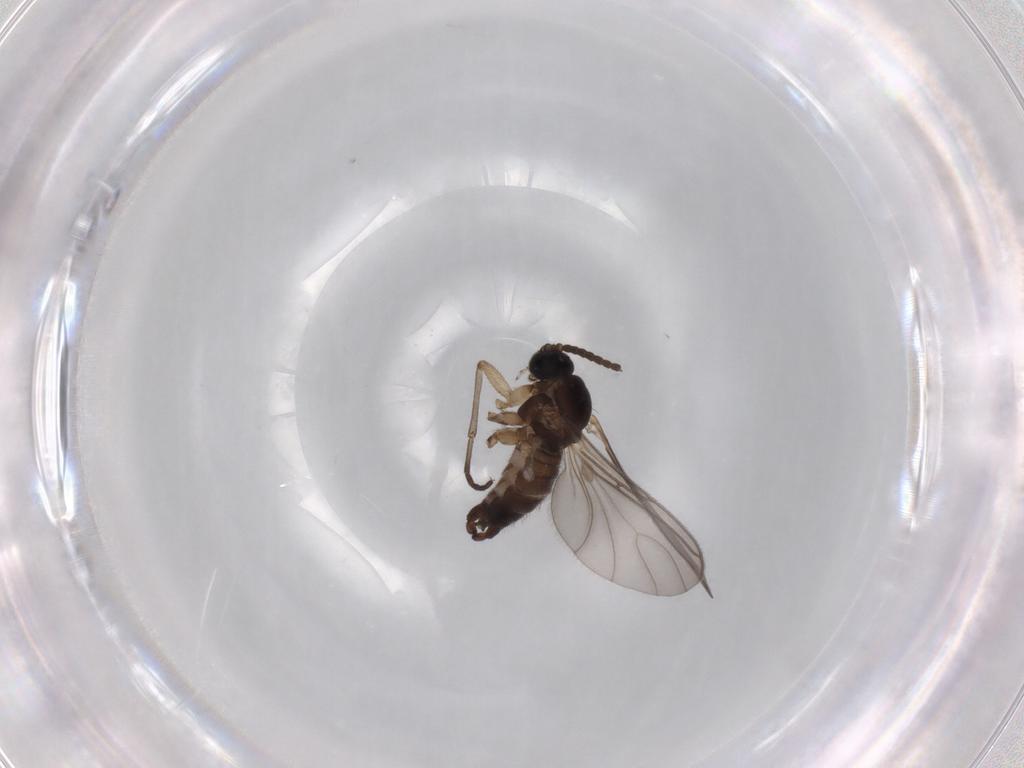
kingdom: Animalia
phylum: Arthropoda
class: Insecta
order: Diptera
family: Sciaridae
